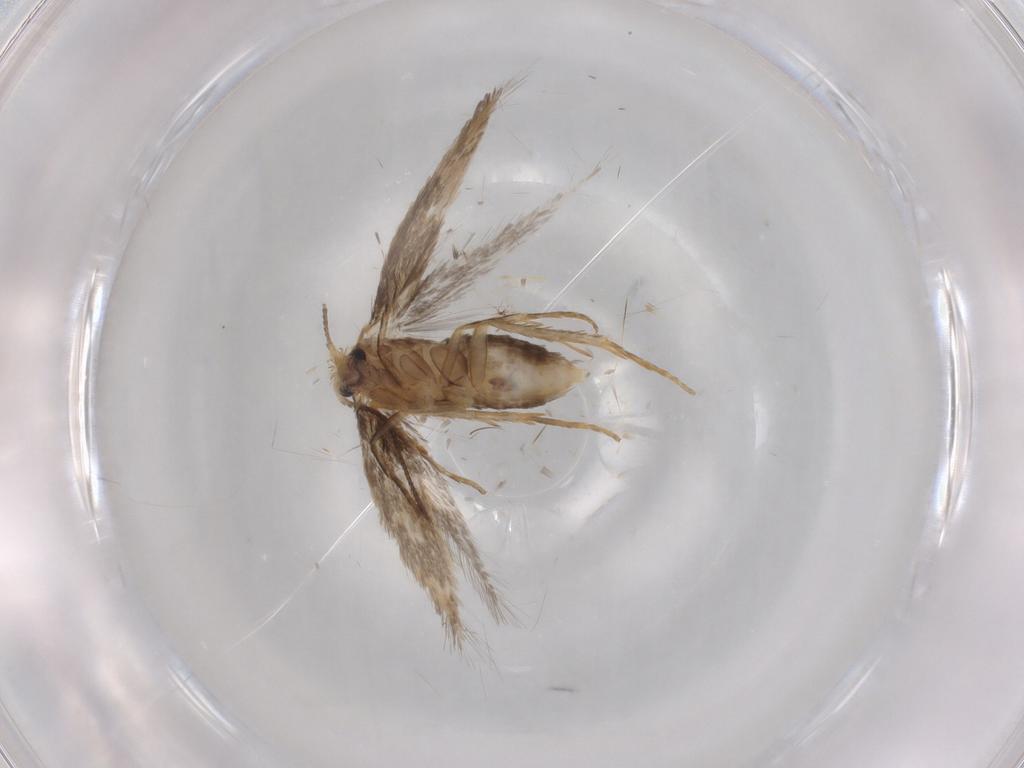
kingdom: Animalia
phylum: Arthropoda
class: Insecta
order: Lepidoptera
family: Nepticulidae
